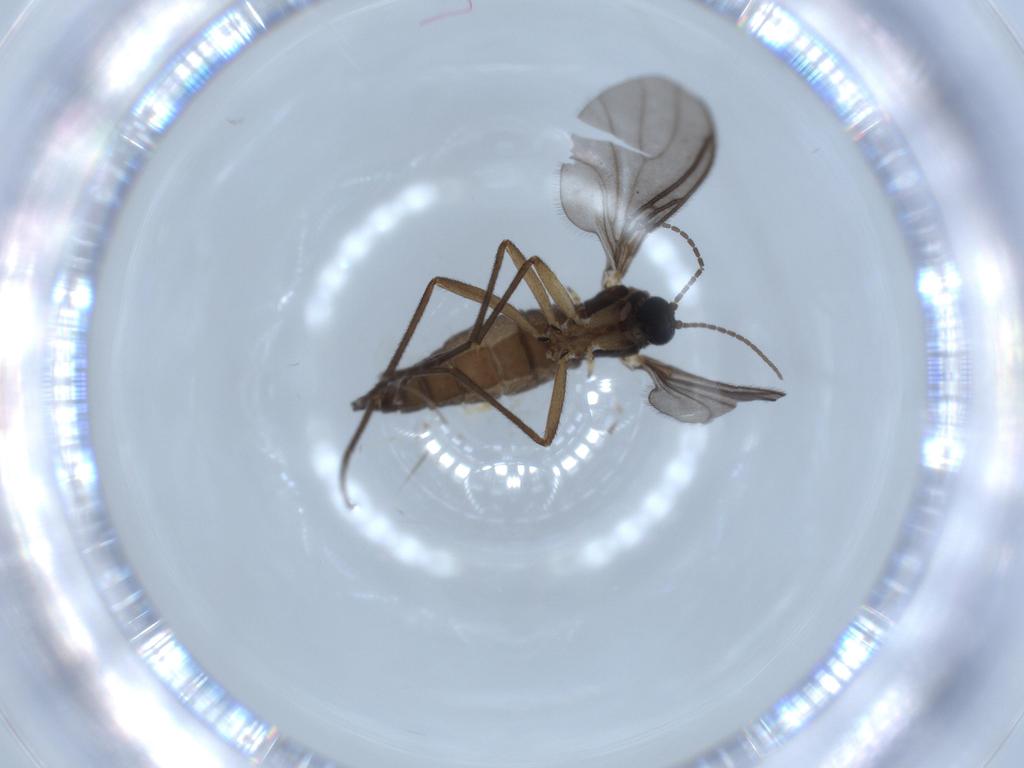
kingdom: Animalia
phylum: Arthropoda
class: Insecta
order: Diptera
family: Sciaridae
